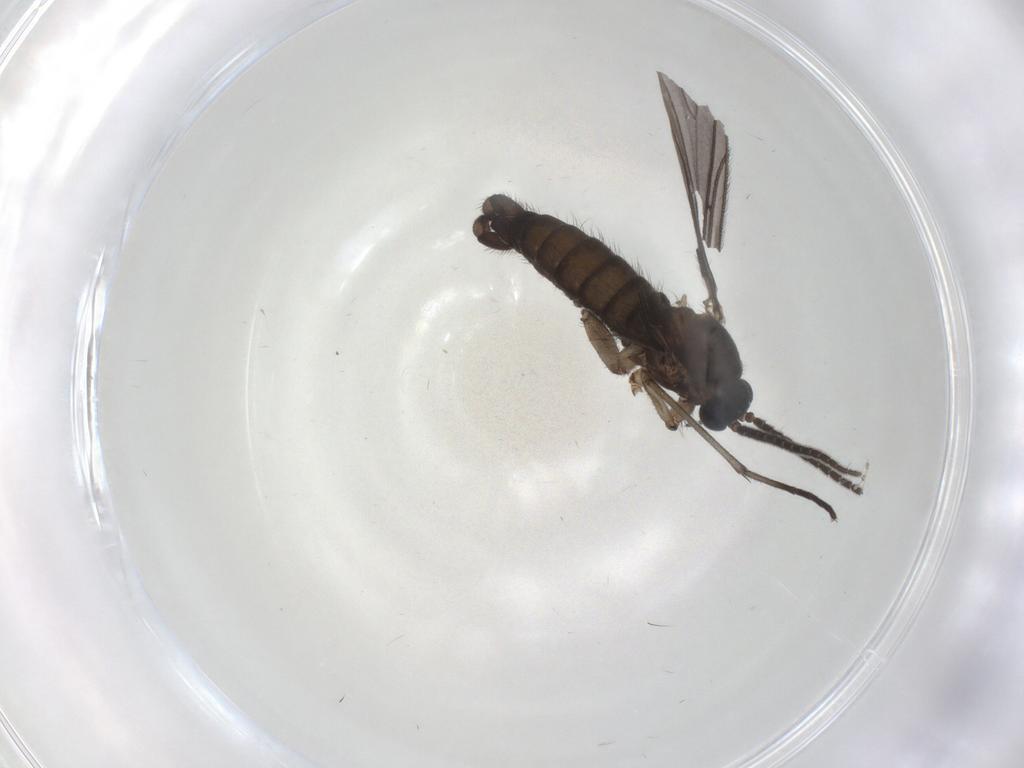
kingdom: Animalia
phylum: Arthropoda
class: Insecta
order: Diptera
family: Sciaridae
